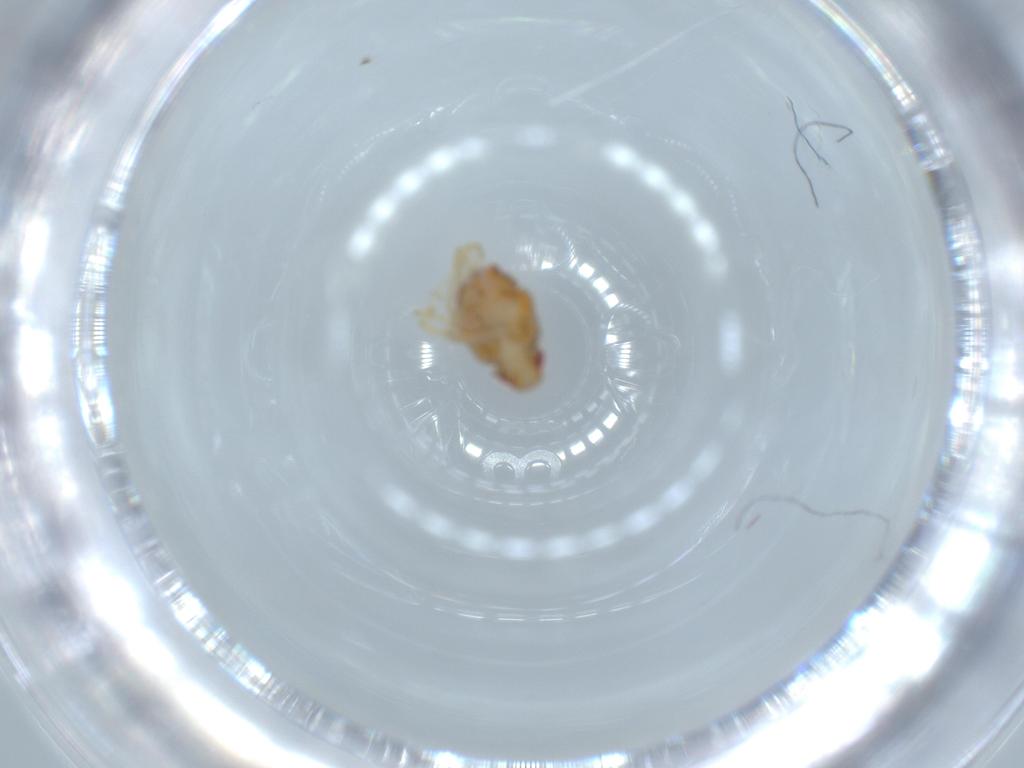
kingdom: Animalia
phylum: Arthropoda
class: Insecta
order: Hemiptera
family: Issidae
